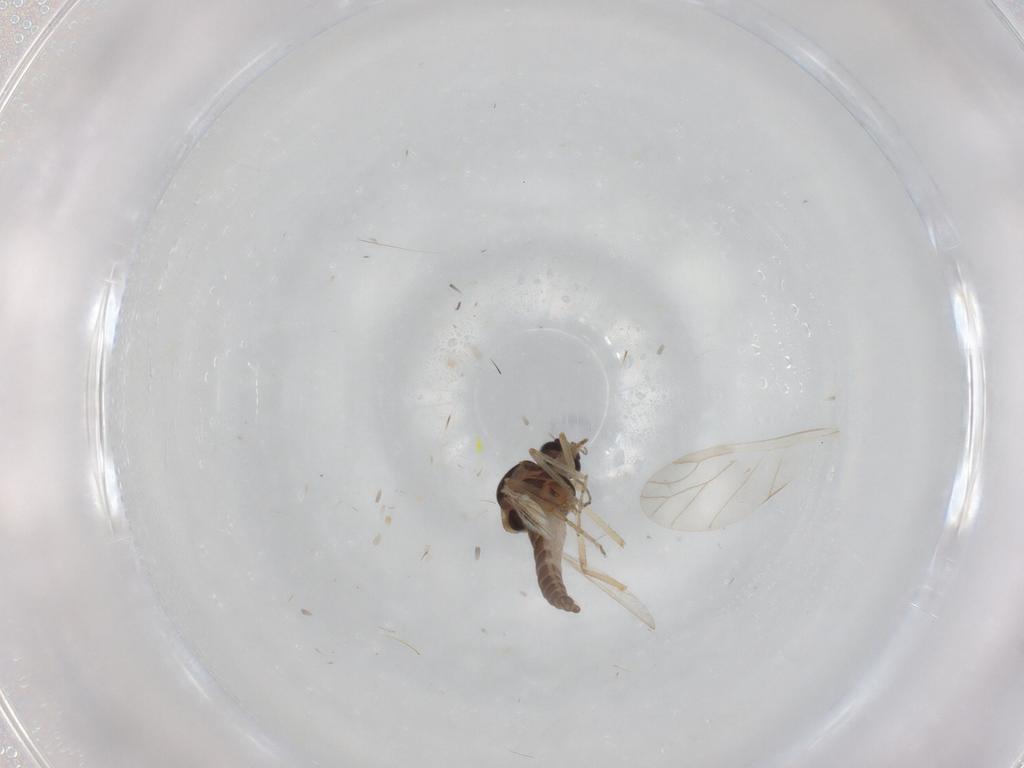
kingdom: Animalia
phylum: Arthropoda
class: Insecta
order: Diptera
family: Ceratopogonidae
